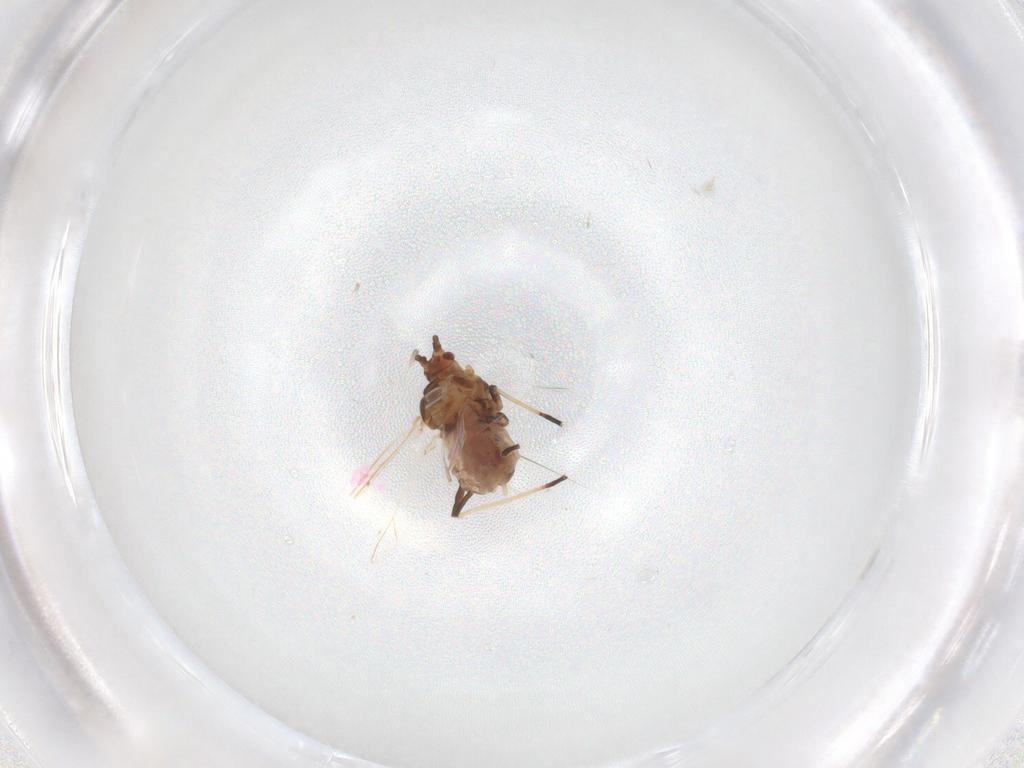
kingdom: Animalia
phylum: Arthropoda
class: Insecta
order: Hemiptera
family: Aphididae
